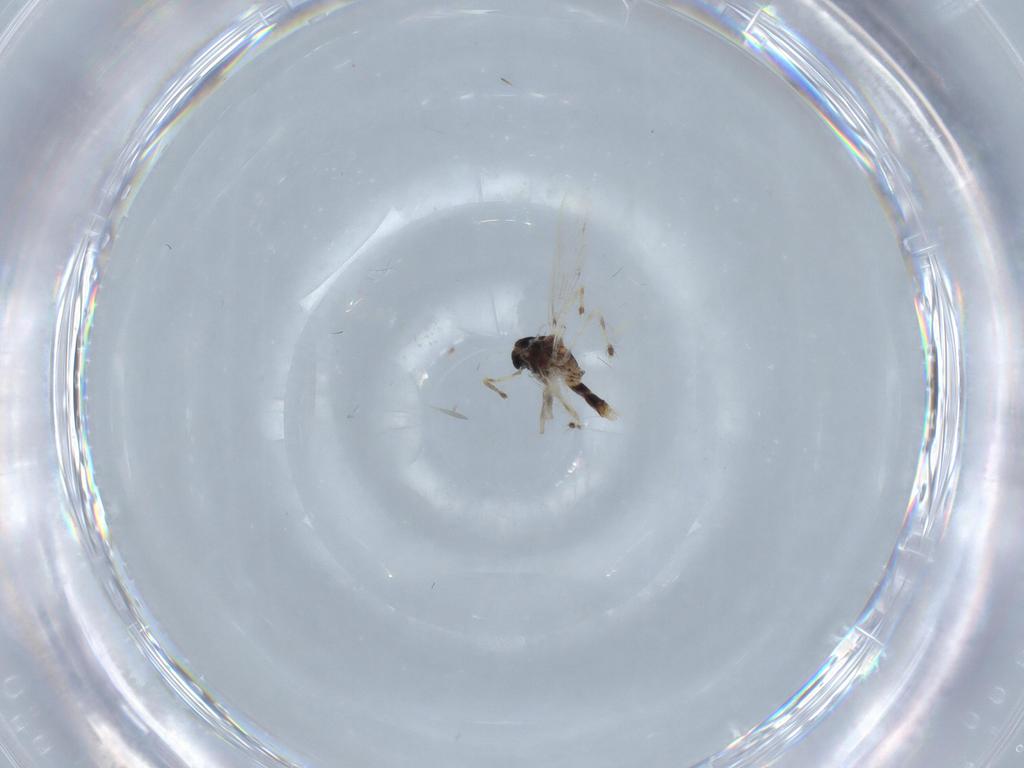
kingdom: Animalia
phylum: Arthropoda
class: Insecta
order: Diptera
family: Chironomidae
